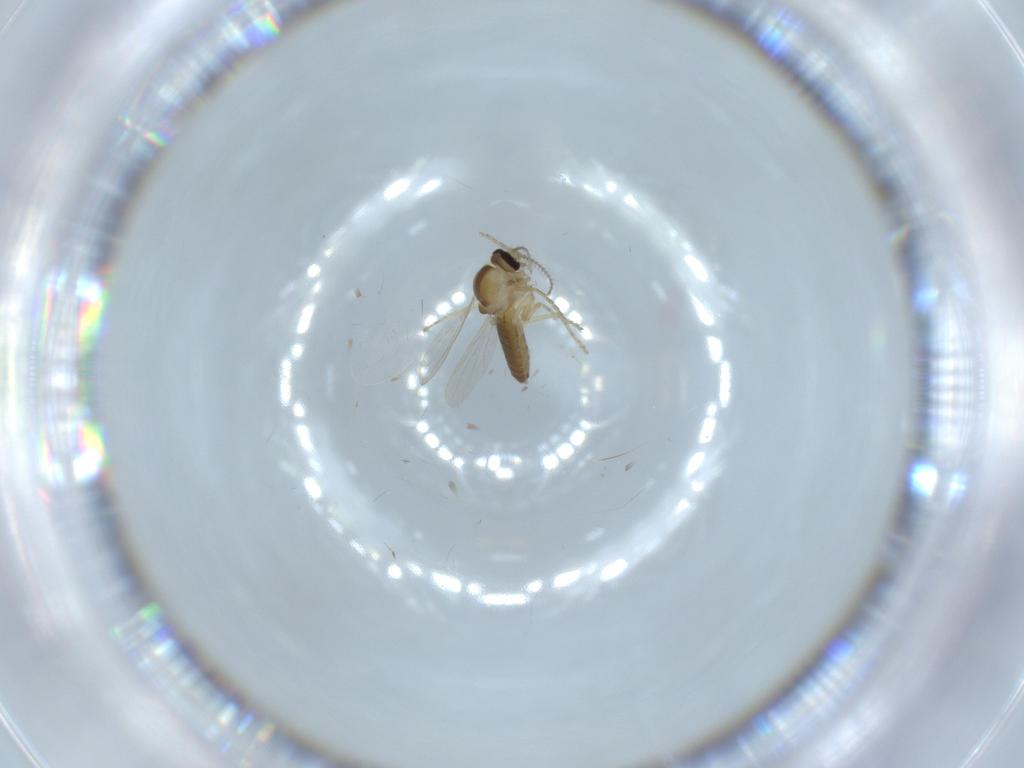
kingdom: Animalia
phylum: Arthropoda
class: Insecta
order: Diptera
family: Ceratopogonidae
